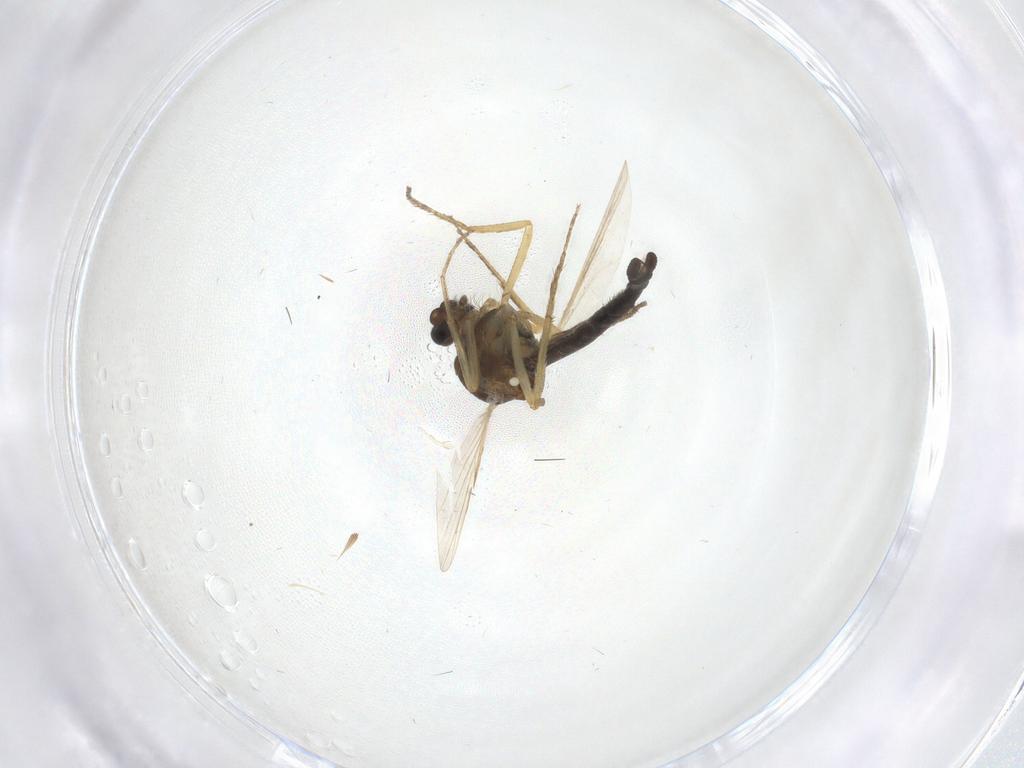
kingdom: Animalia
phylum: Arthropoda
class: Insecta
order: Diptera
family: Ceratopogonidae
